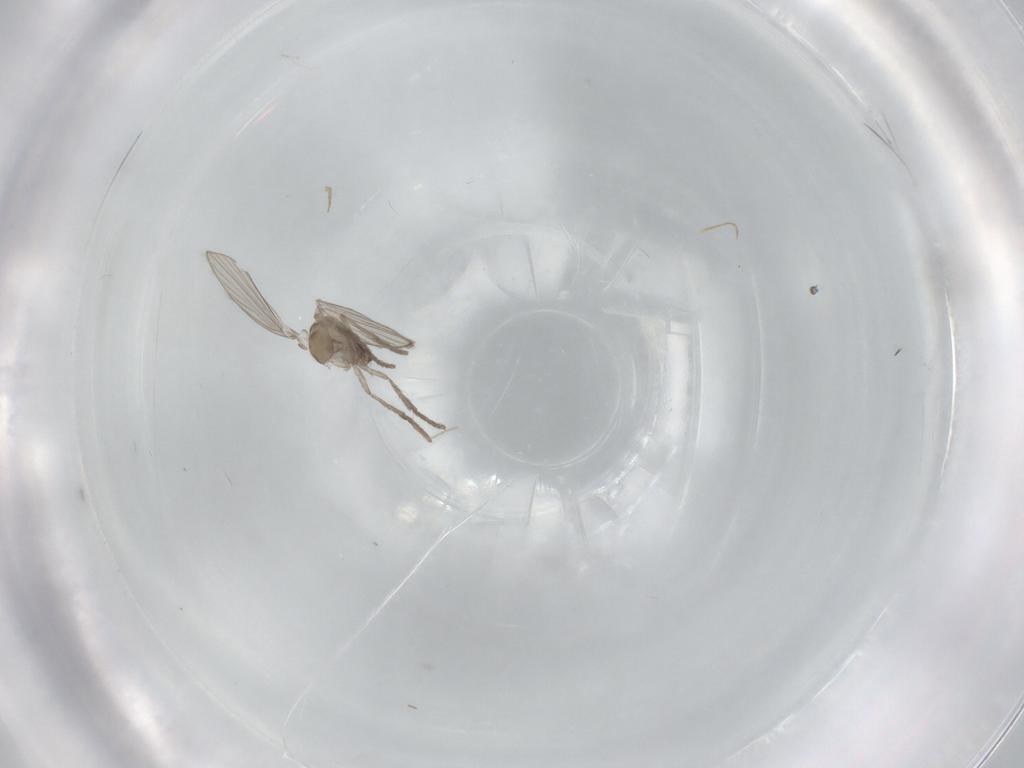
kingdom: Animalia
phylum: Arthropoda
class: Insecta
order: Diptera
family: Psychodidae
